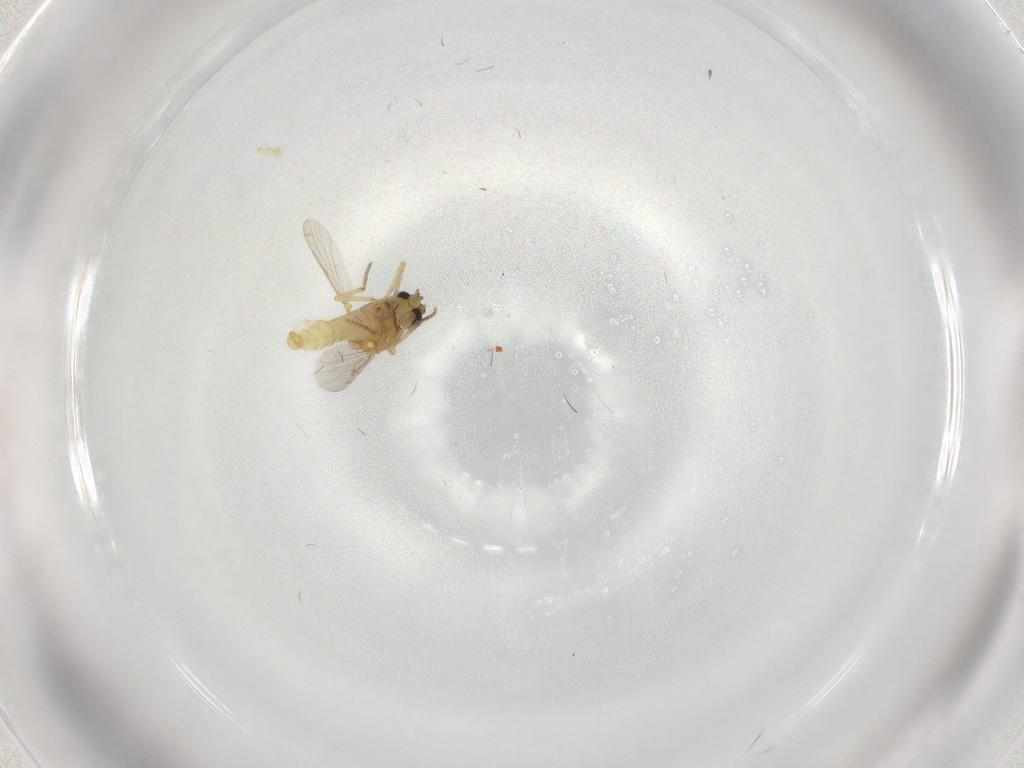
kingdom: Animalia
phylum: Arthropoda
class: Insecta
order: Diptera
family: Ceratopogonidae
